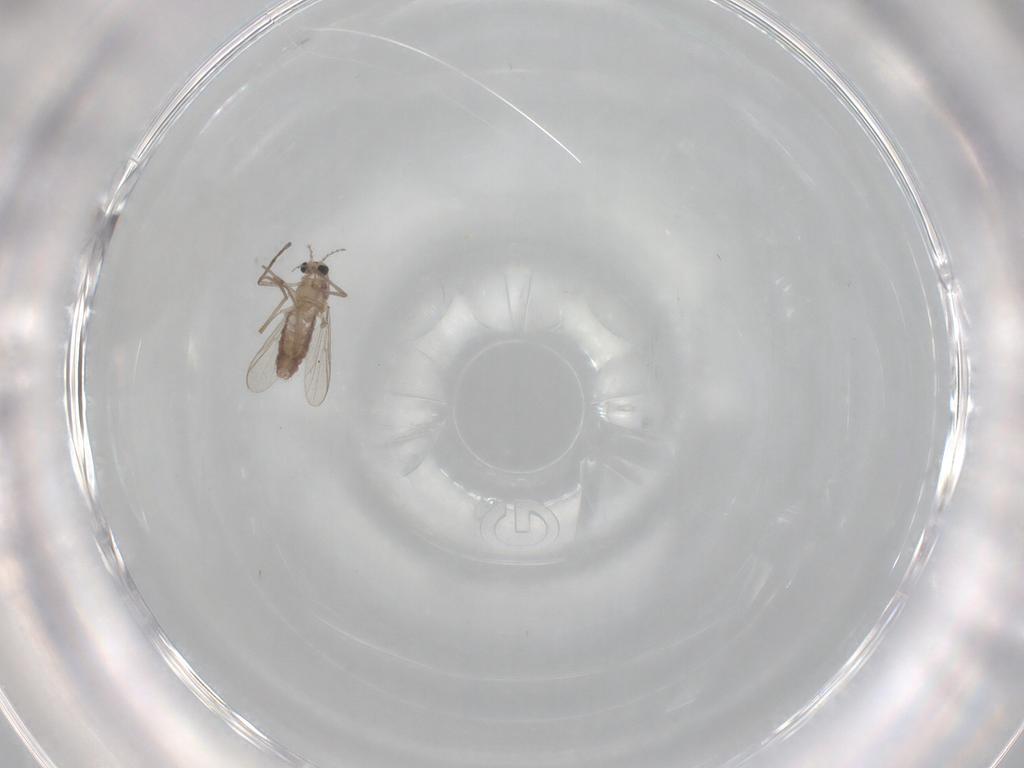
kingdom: Animalia
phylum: Arthropoda
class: Insecta
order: Diptera
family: Chironomidae
